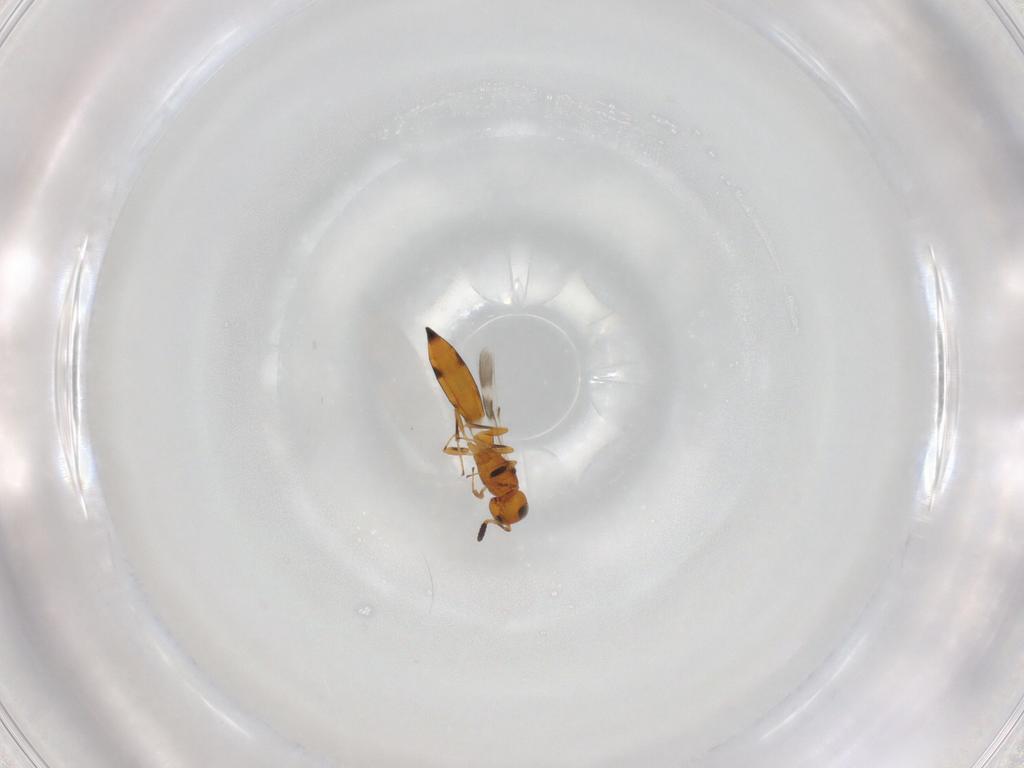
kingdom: Animalia
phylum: Arthropoda
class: Insecta
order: Hymenoptera
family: Scelionidae
